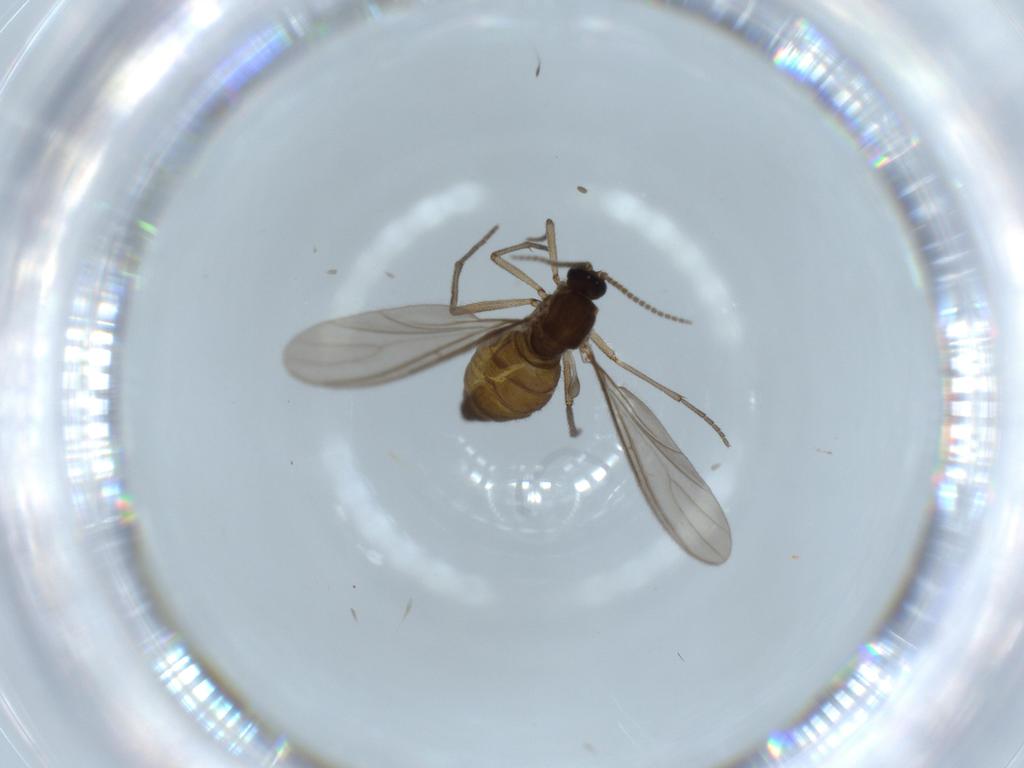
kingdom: Animalia
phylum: Arthropoda
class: Insecta
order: Diptera
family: Sciaridae
